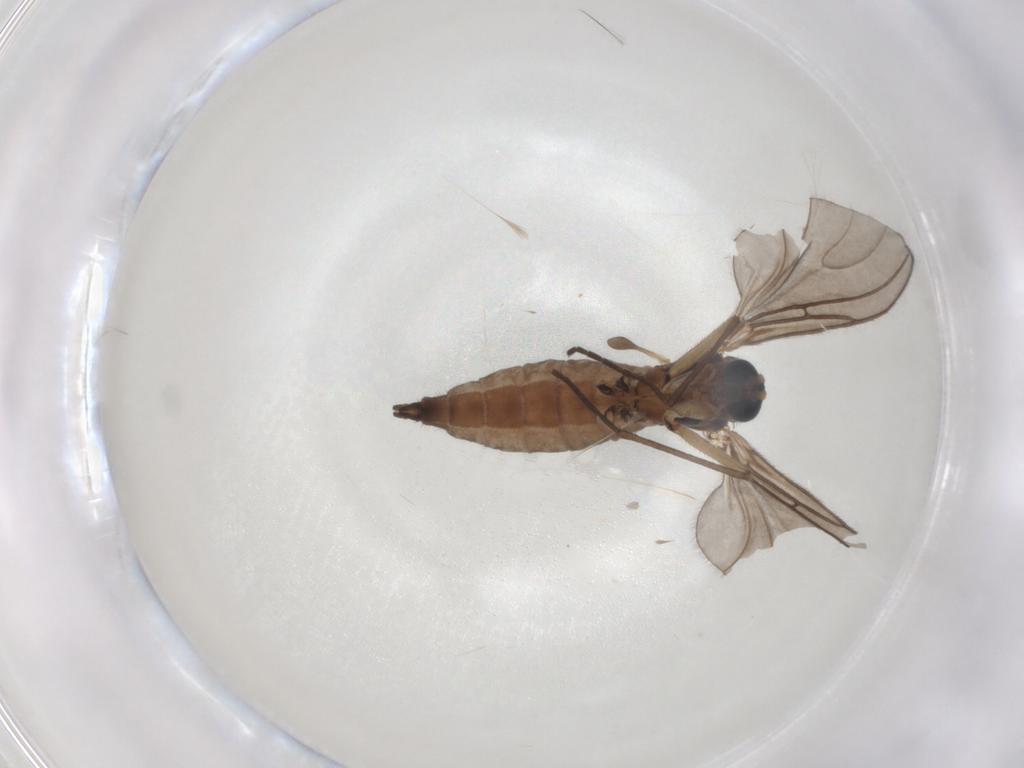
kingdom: Animalia
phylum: Arthropoda
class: Insecta
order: Diptera
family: Sciaridae
